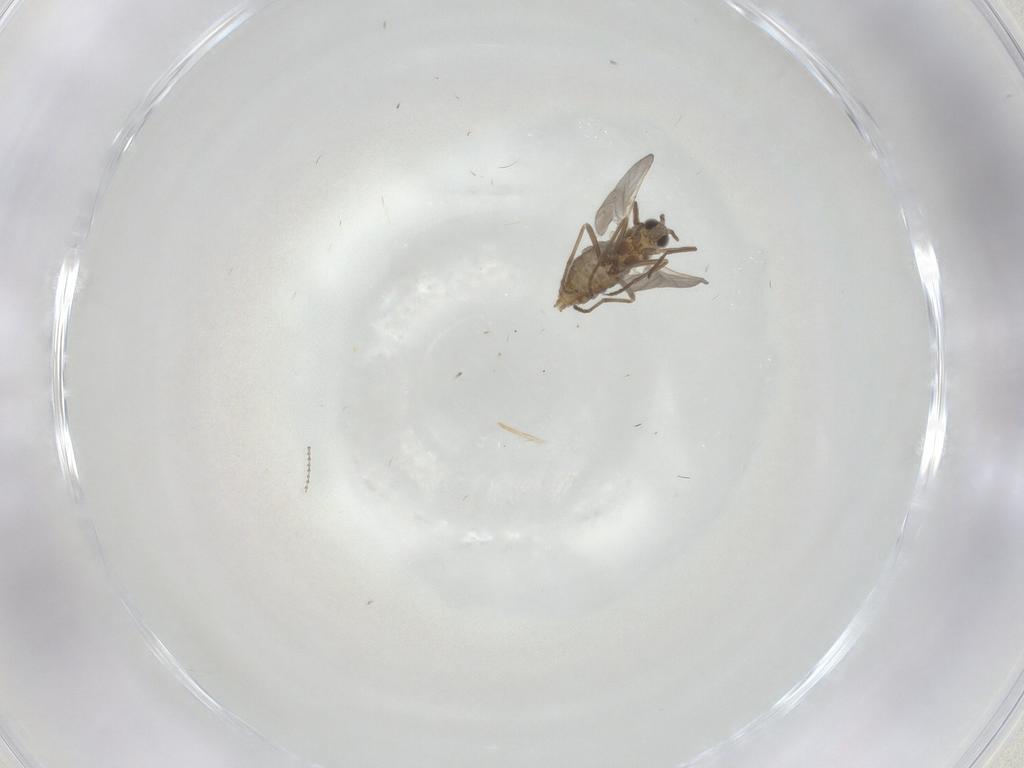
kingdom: Animalia
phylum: Arthropoda
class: Insecta
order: Diptera
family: Cecidomyiidae
